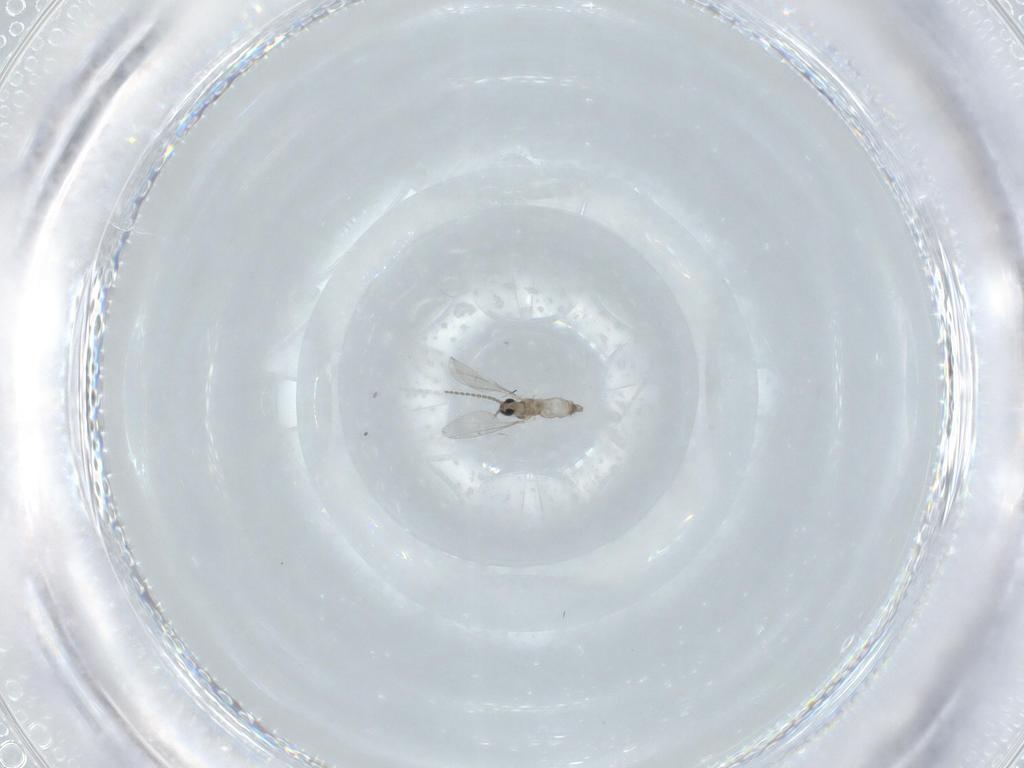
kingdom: Animalia
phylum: Arthropoda
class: Insecta
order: Diptera
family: Cecidomyiidae
